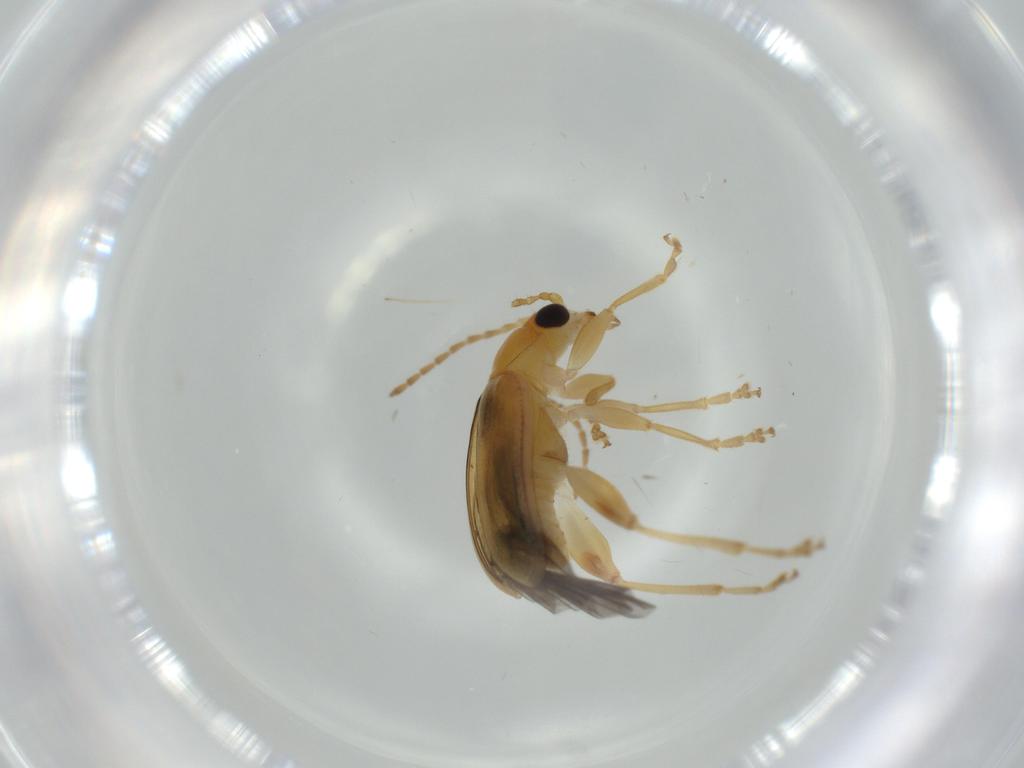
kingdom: Animalia
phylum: Arthropoda
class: Insecta
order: Coleoptera
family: Chrysomelidae
